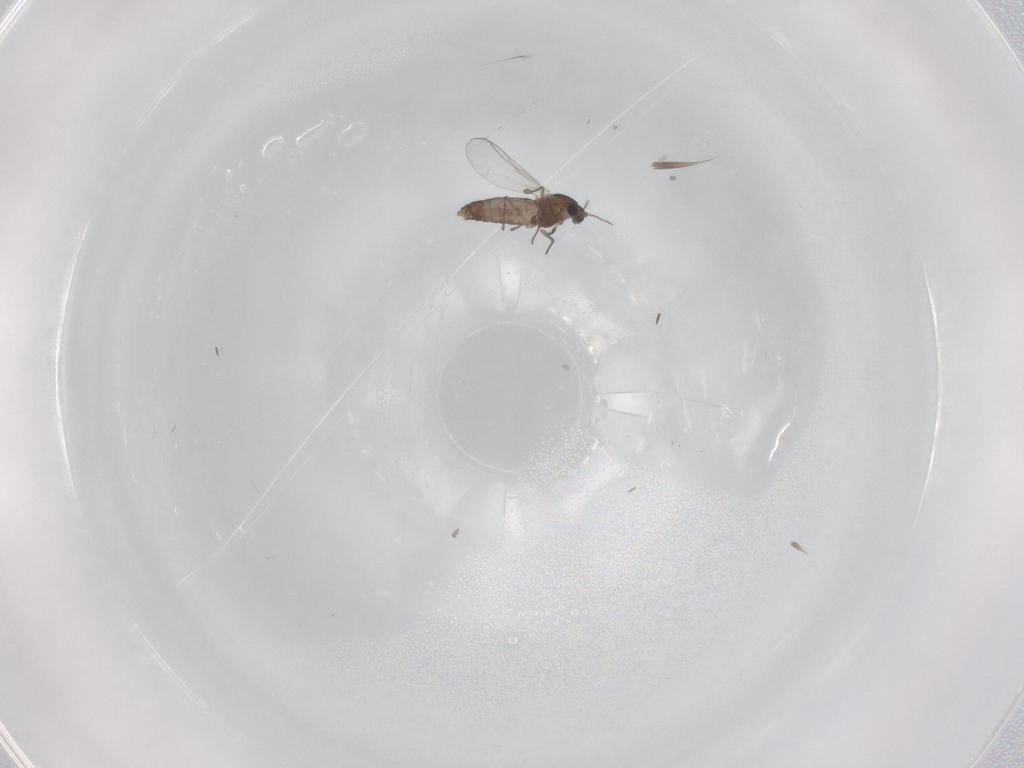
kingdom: Animalia
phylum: Arthropoda
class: Insecta
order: Diptera
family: Chironomidae
